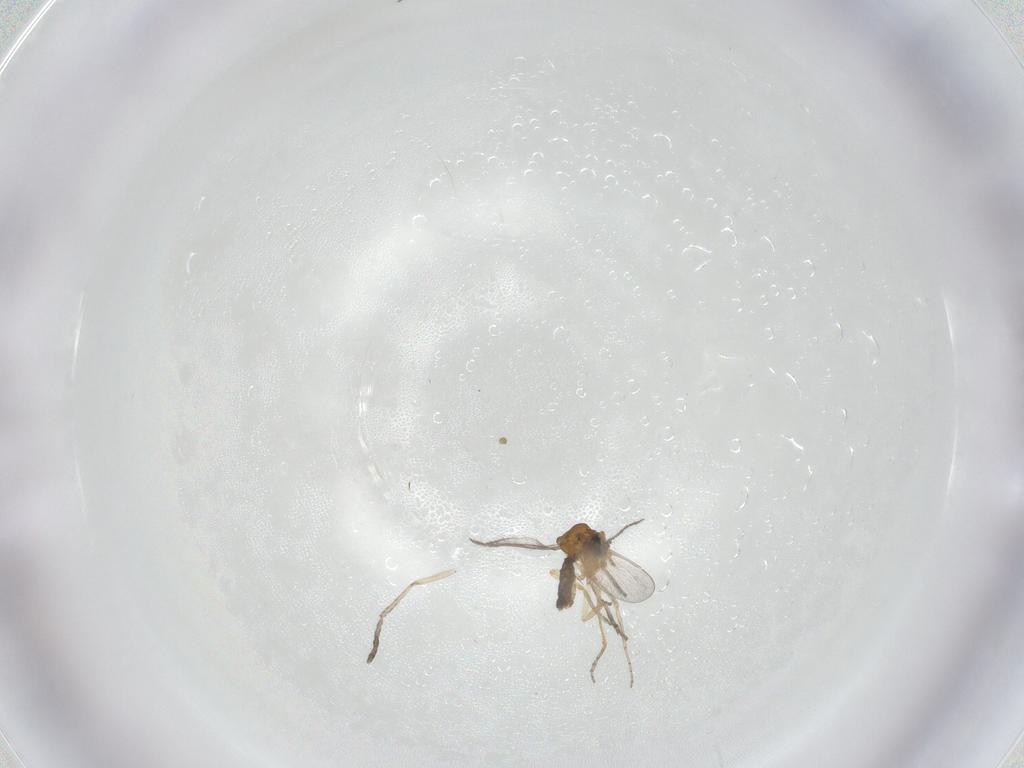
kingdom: Animalia
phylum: Arthropoda
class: Insecta
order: Diptera
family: Ceratopogonidae
